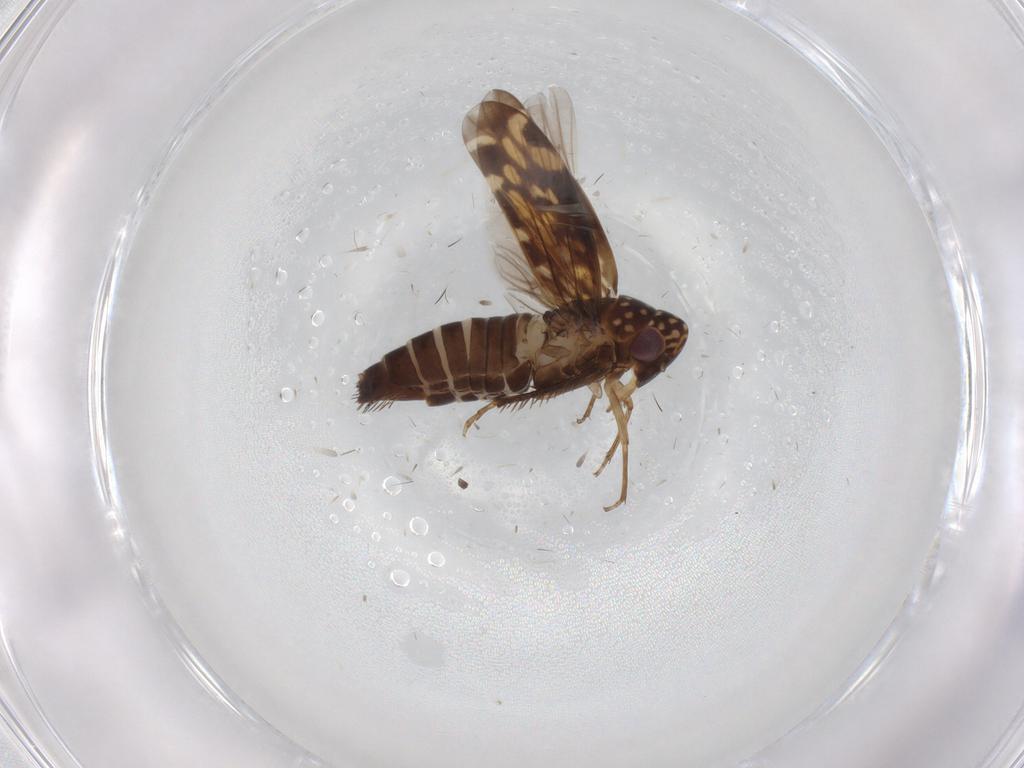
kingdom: Animalia
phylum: Arthropoda
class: Insecta
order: Hemiptera
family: Cicadellidae
